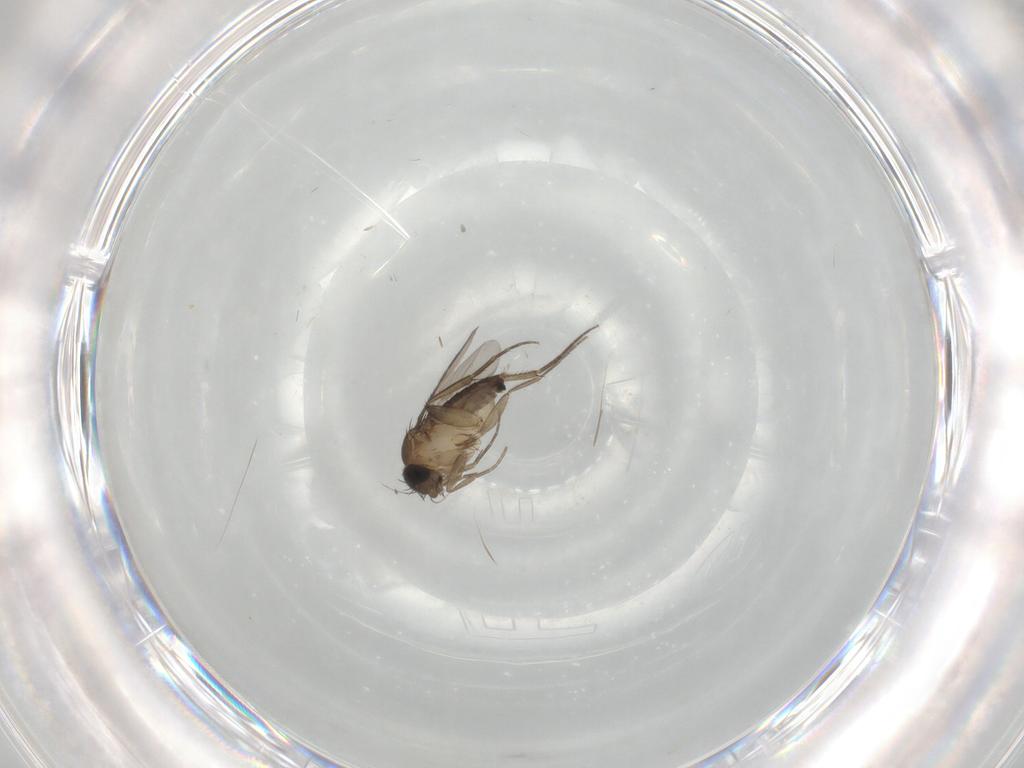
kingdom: Animalia
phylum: Arthropoda
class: Insecta
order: Diptera
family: Phoridae
